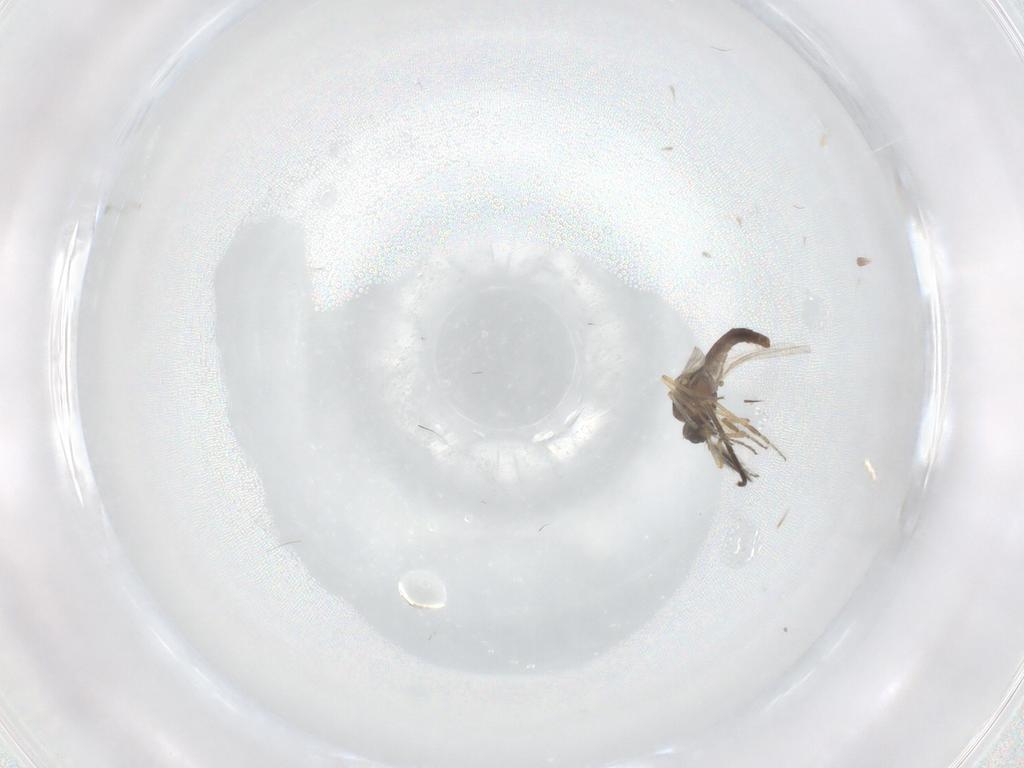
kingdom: Animalia
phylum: Arthropoda
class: Insecta
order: Diptera
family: Ceratopogonidae
